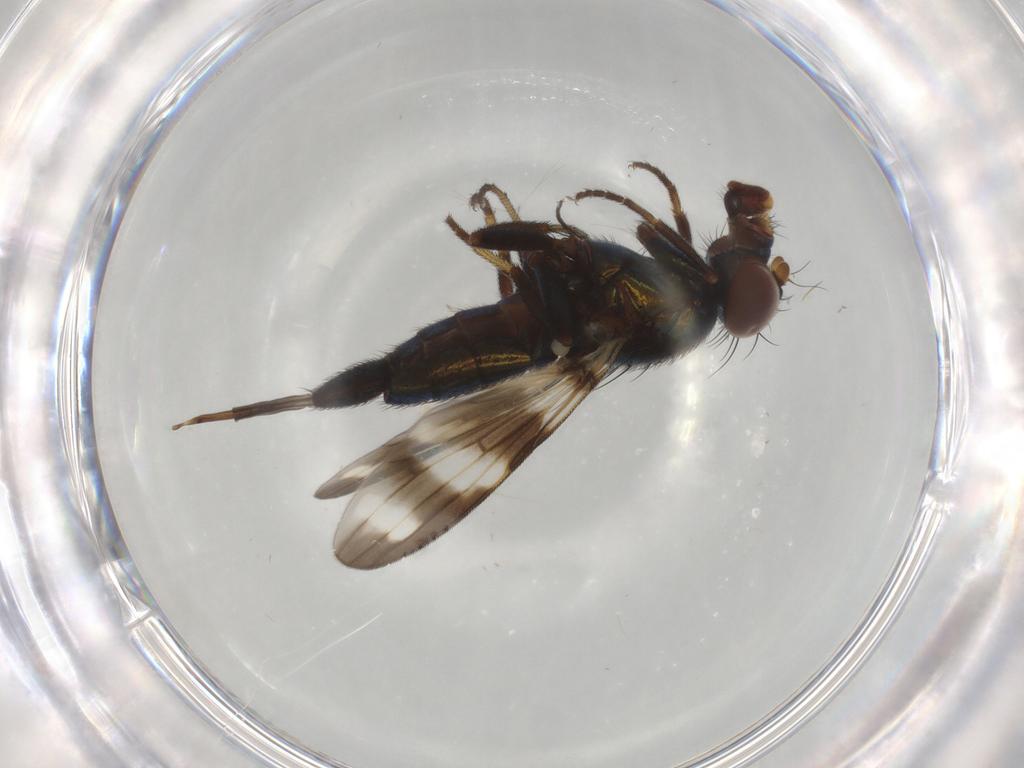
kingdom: Animalia
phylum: Arthropoda
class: Insecta
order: Diptera
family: Ulidiidae
